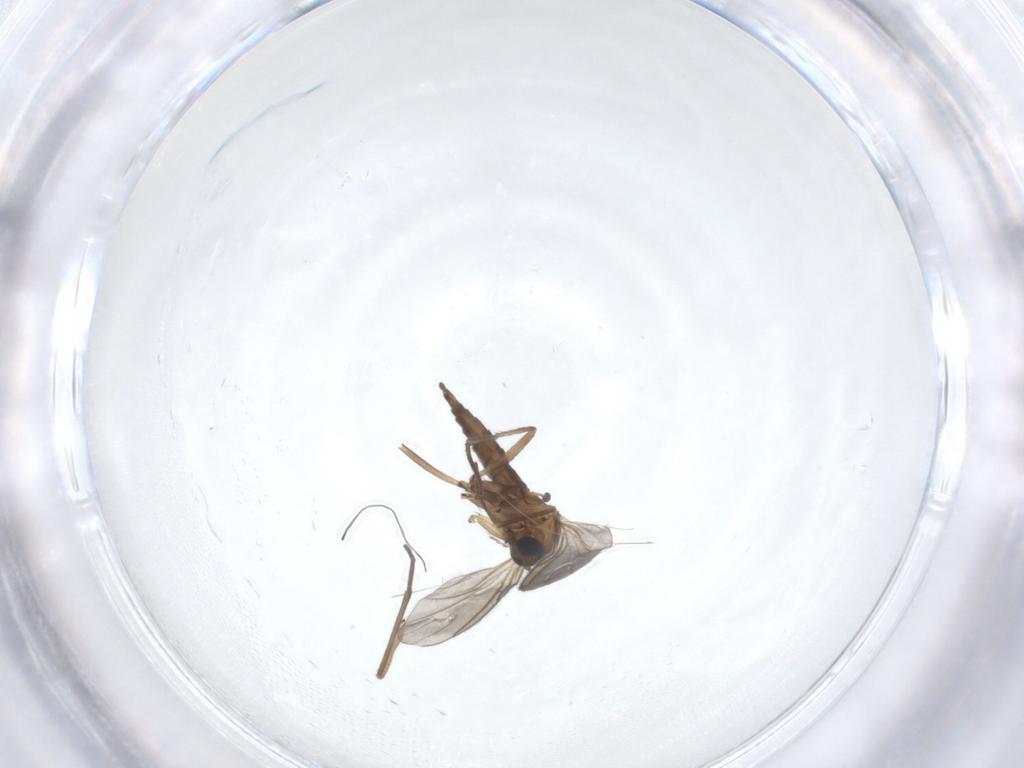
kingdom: Animalia
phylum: Arthropoda
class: Insecta
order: Diptera
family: Sciaridae
